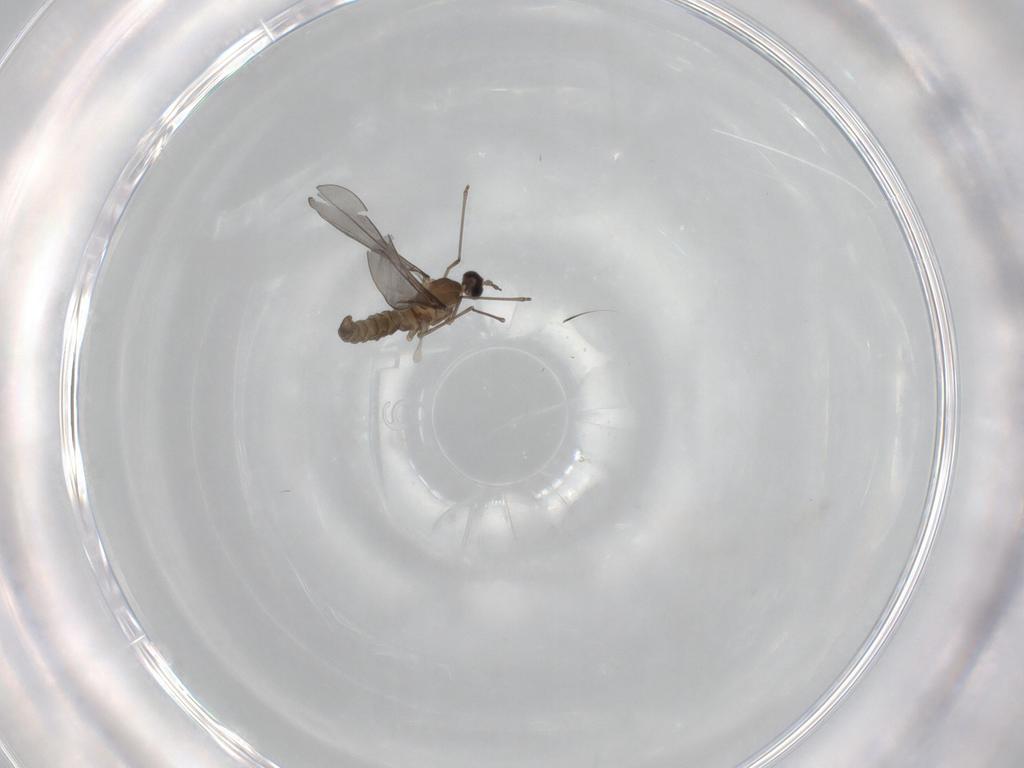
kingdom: Animalia
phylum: Arthropoda
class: Insecta
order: Diptera
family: Cecidomyiidae
